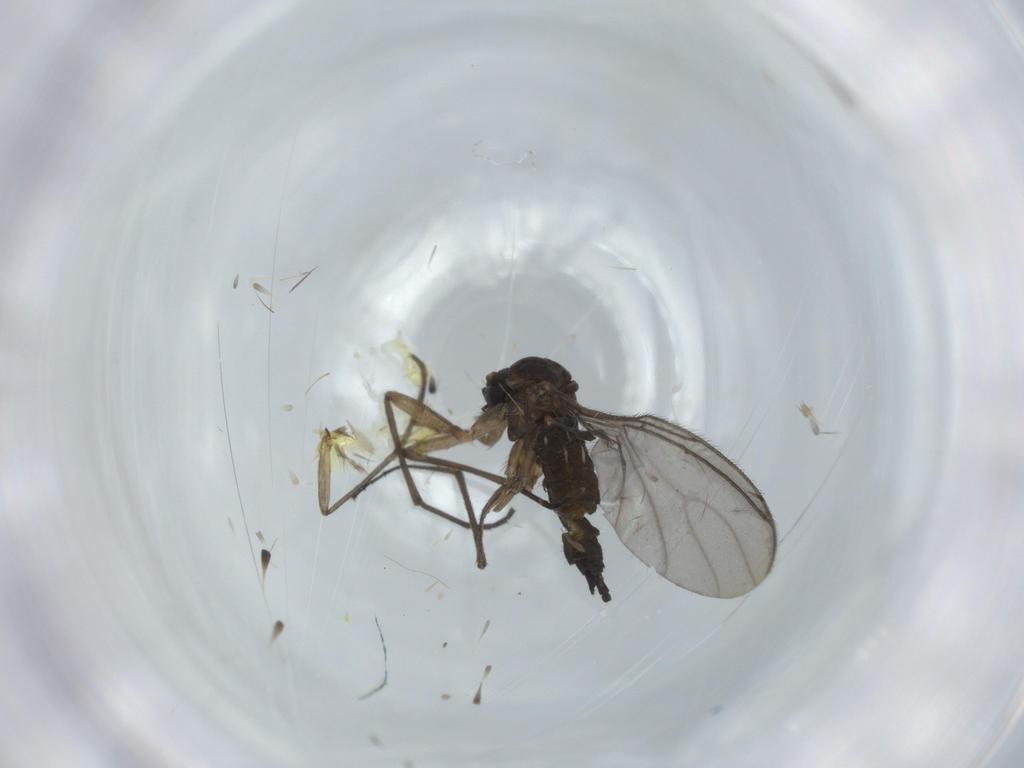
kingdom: Animalia
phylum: Arthropoda
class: Insecta
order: Diptera
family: Sciaridae
